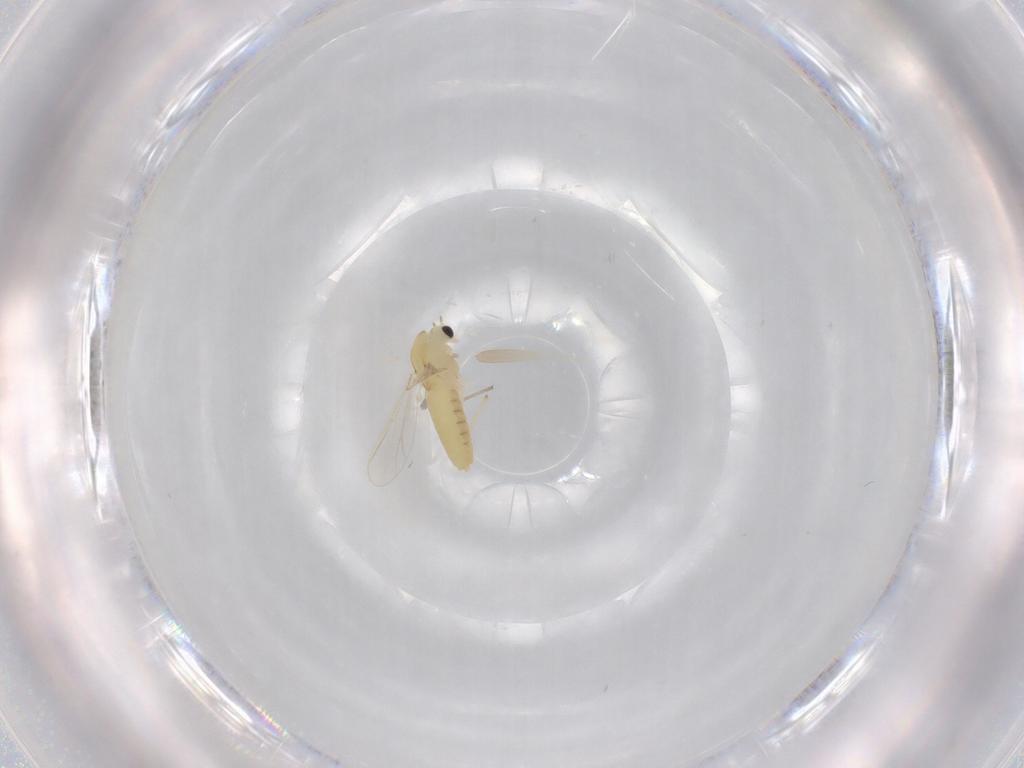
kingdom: Animalia
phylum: Arthropoda
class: Insecta
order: Diptera
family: Chironomidae
